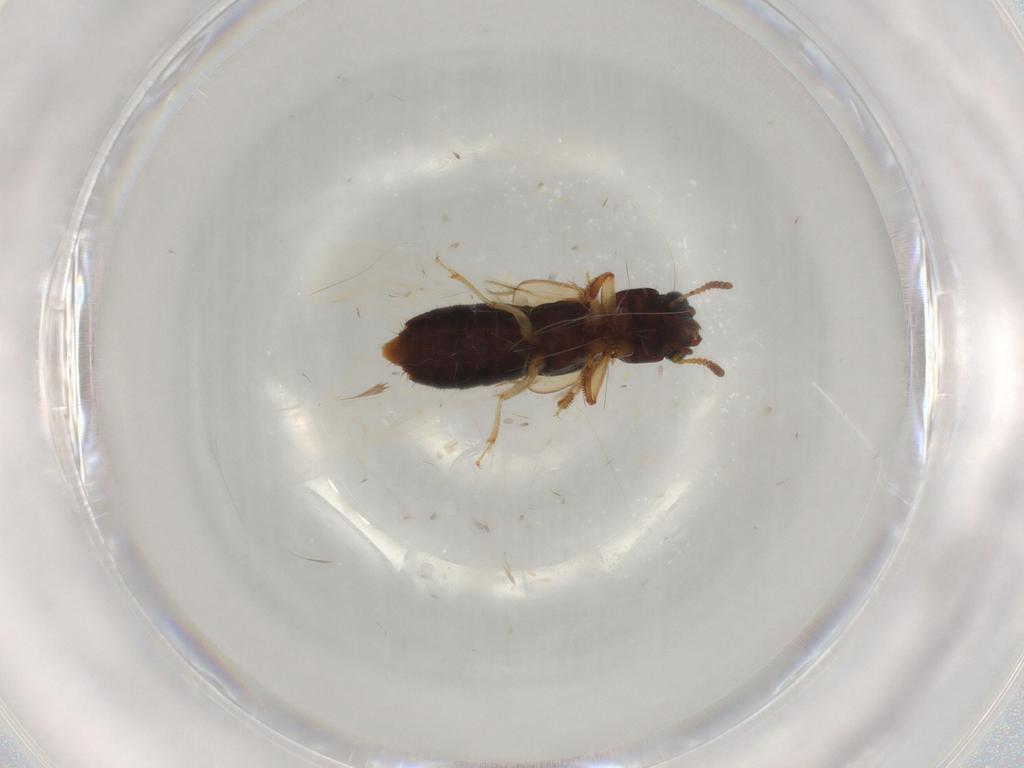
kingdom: Animalia
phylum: Arthropoda
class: Insecta
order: Coleoptera
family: Staphylinidae
